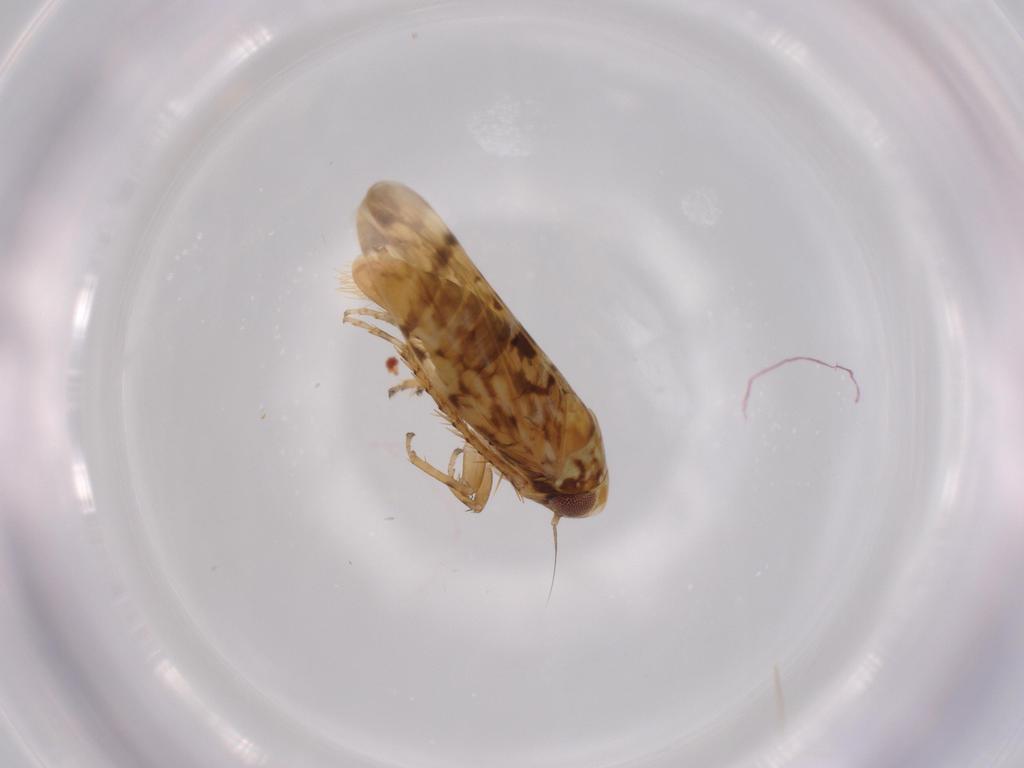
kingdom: Animalia
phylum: Arthropoda
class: Insecta
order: Hemiptera
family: Cicadellidae
